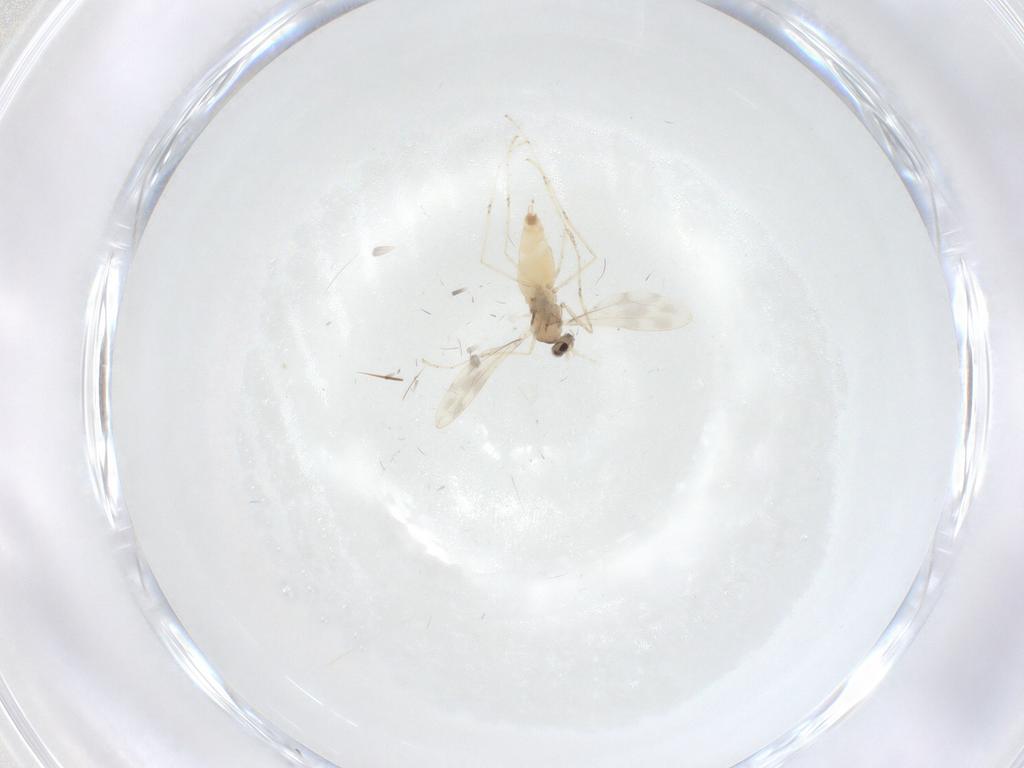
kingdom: Animalia
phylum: Arthropoda
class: Insecta
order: Diptera
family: Cecidomyiidae
